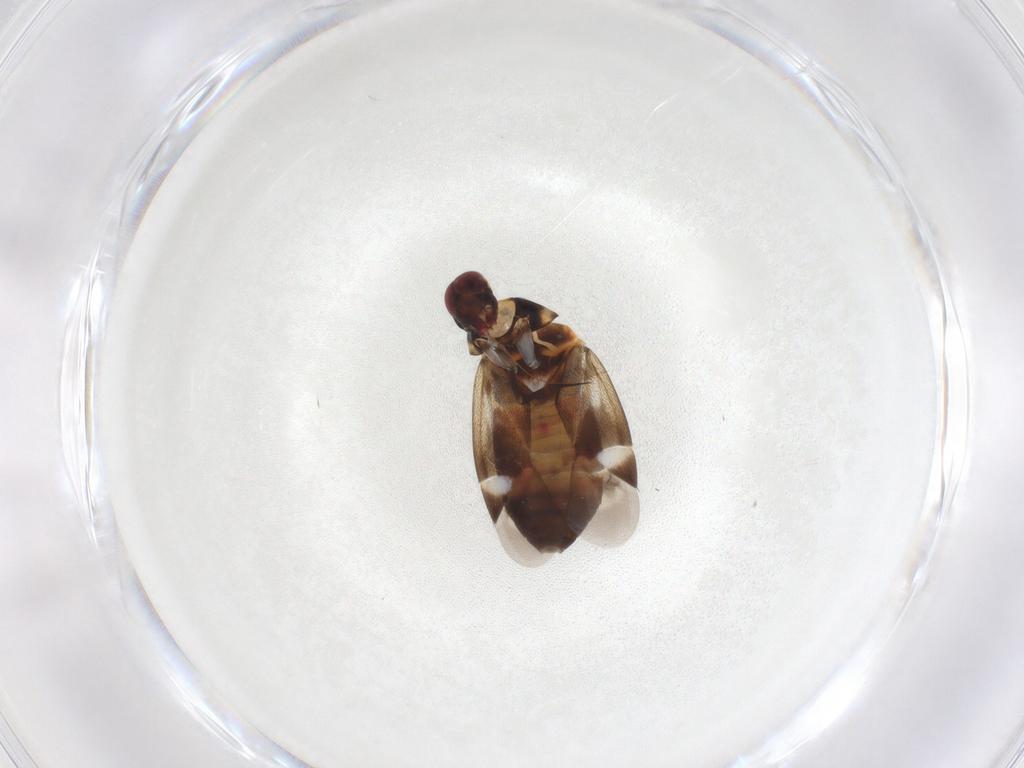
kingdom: Animalia
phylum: Arthropoda
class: Insecta
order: Hemiptera
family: Miridae
